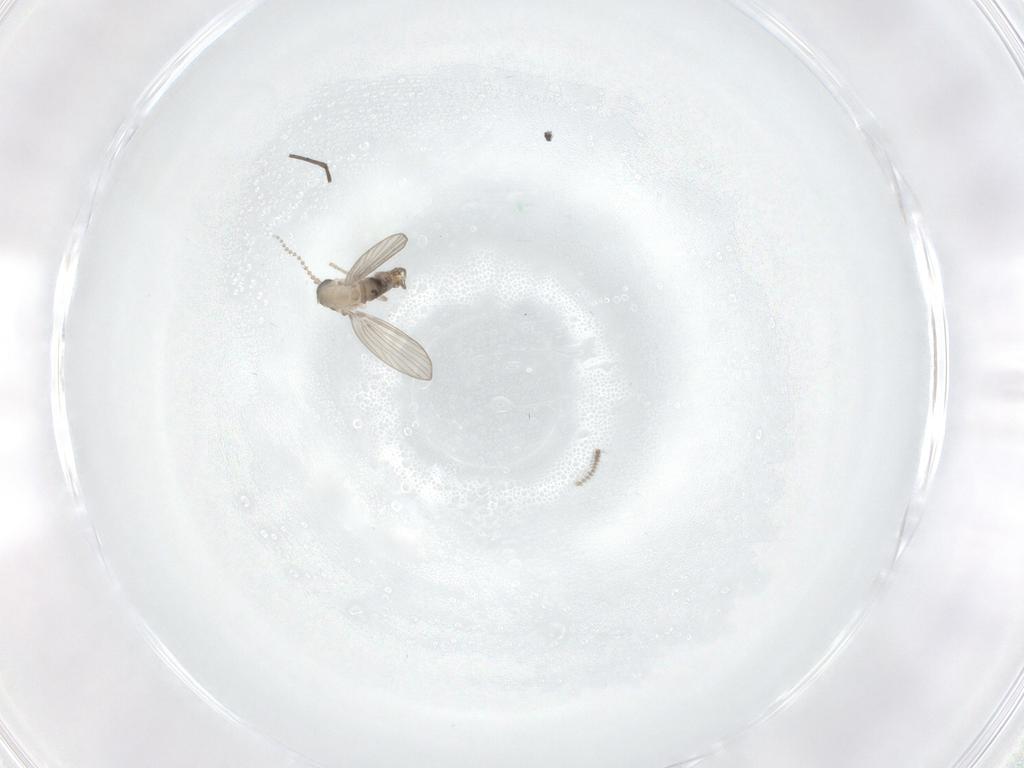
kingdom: Animalia
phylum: Arthropoda
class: Insecta
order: Diptera
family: Psychodidae
